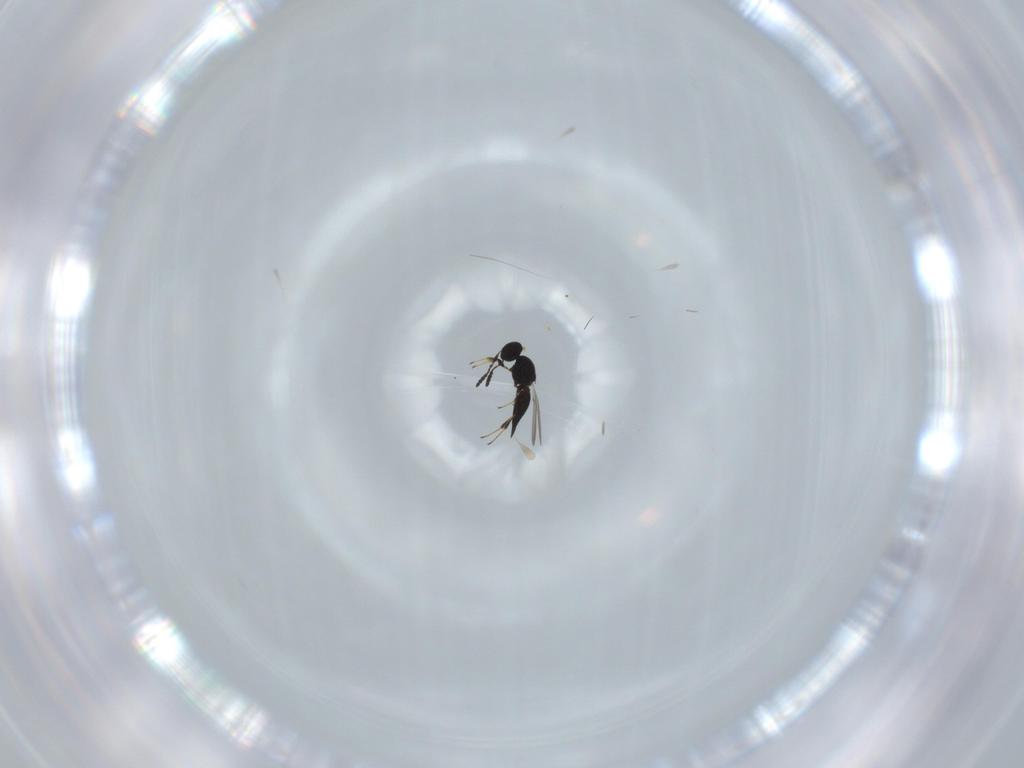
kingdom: Animalia
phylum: Arthropoda
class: Insecta
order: Hymenoptera
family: Platygastridae
